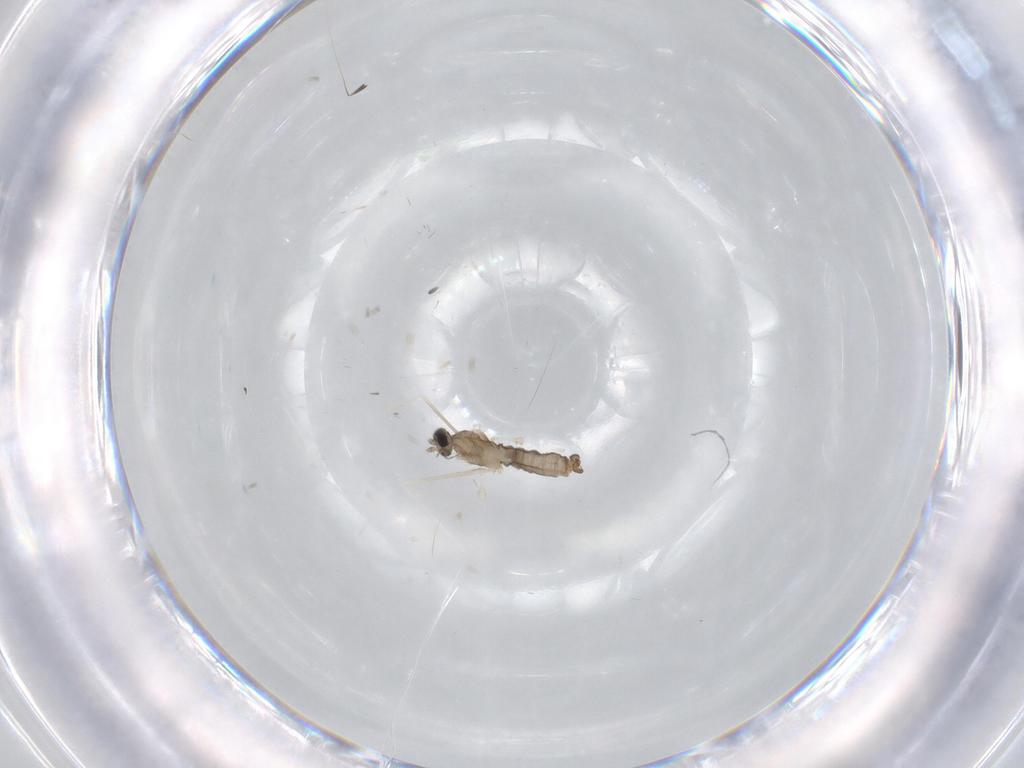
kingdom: Animalia
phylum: Arthropoda
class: Insecta
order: Diptera
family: Cecidomyiidae
